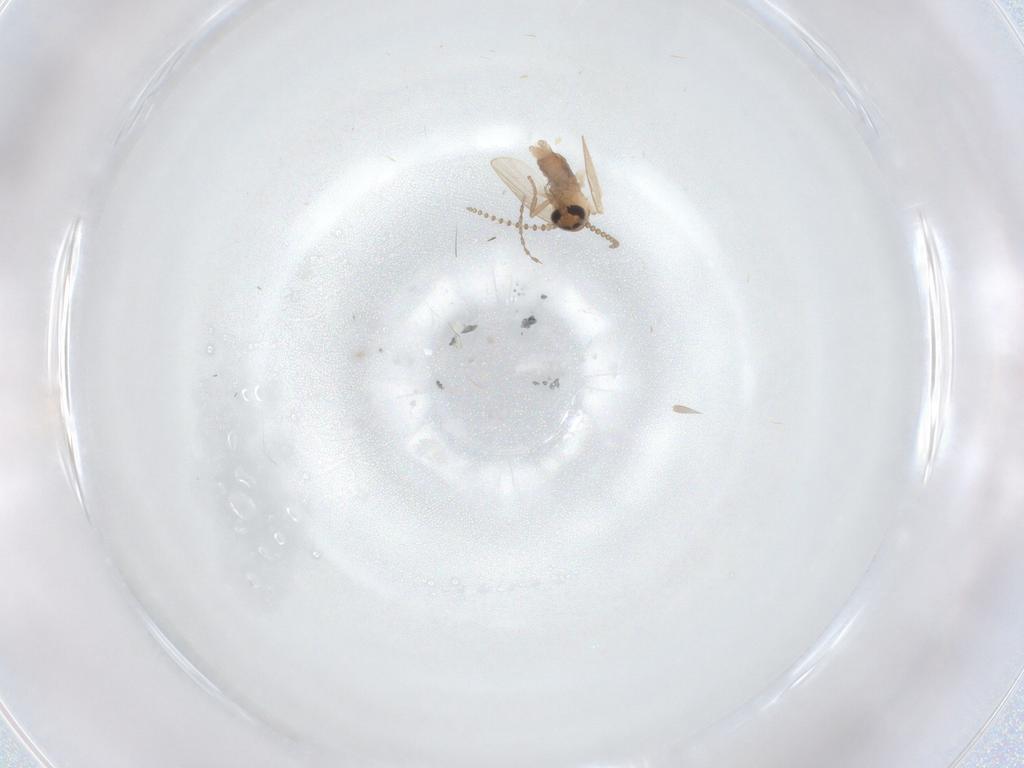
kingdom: Animalia
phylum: Arthropoda
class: Insecta
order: Diptera
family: Psychodidae
